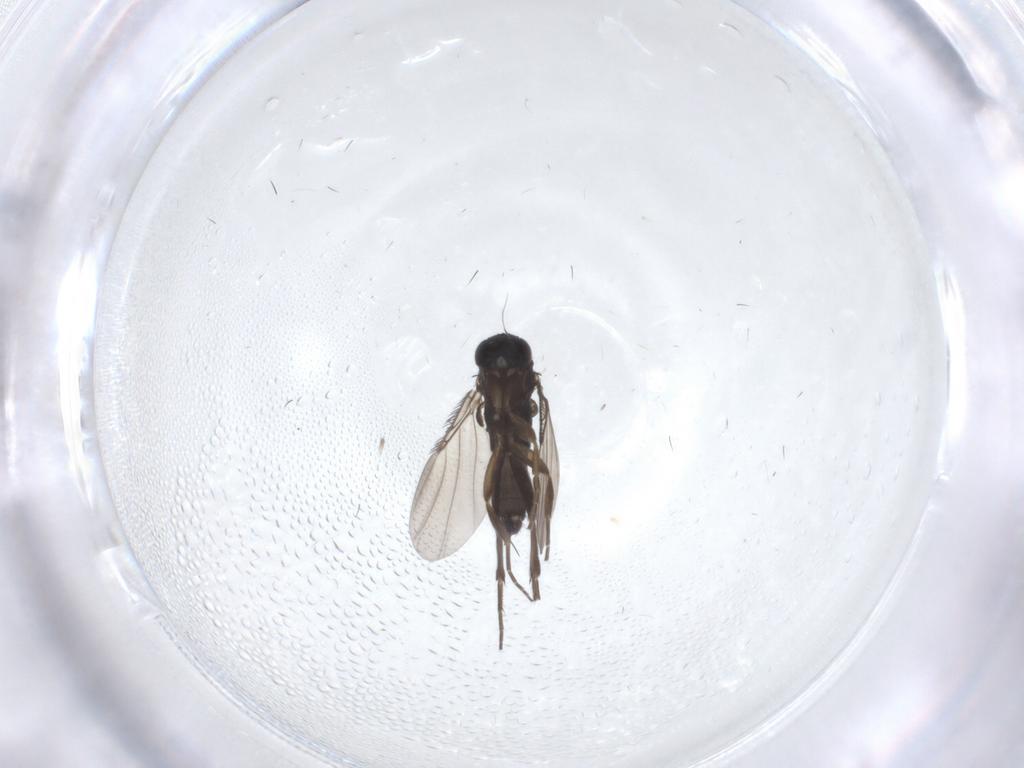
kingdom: Animalia
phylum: Arthropoda
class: Insecta
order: Diptera
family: Phoridae
